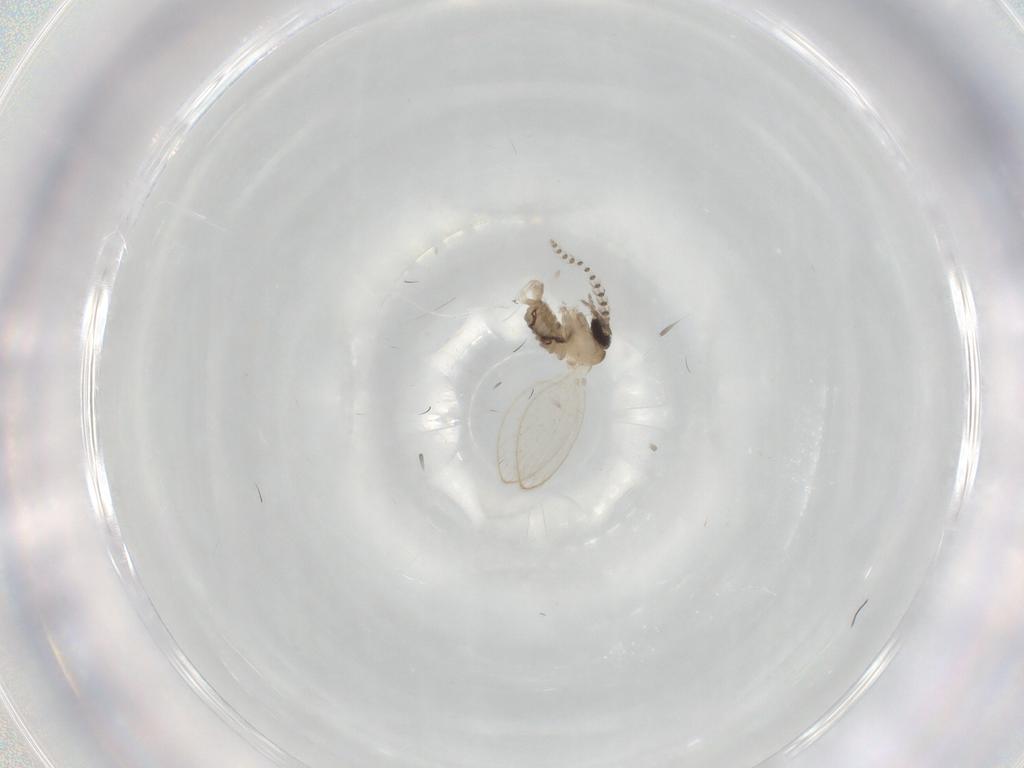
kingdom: Animalia
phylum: Arthropoda
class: Insecta
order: Diptera
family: Psychodidae
